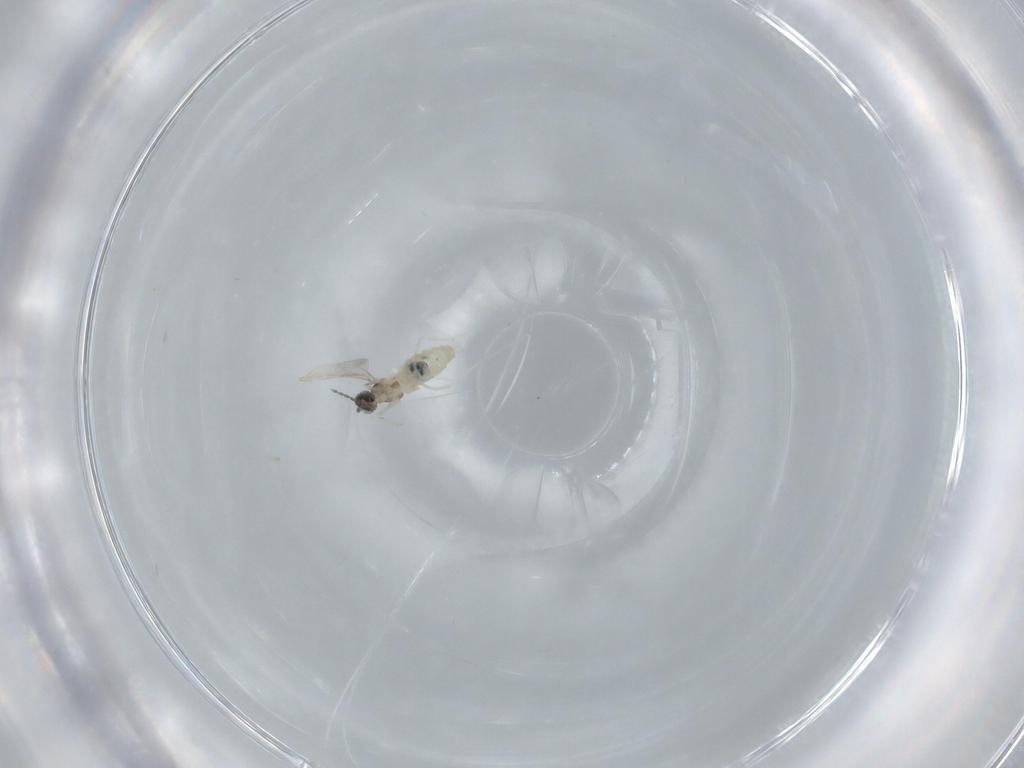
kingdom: Animalia
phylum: Arthropoda
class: Insecta
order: Diptera
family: Cecidomyiidae
